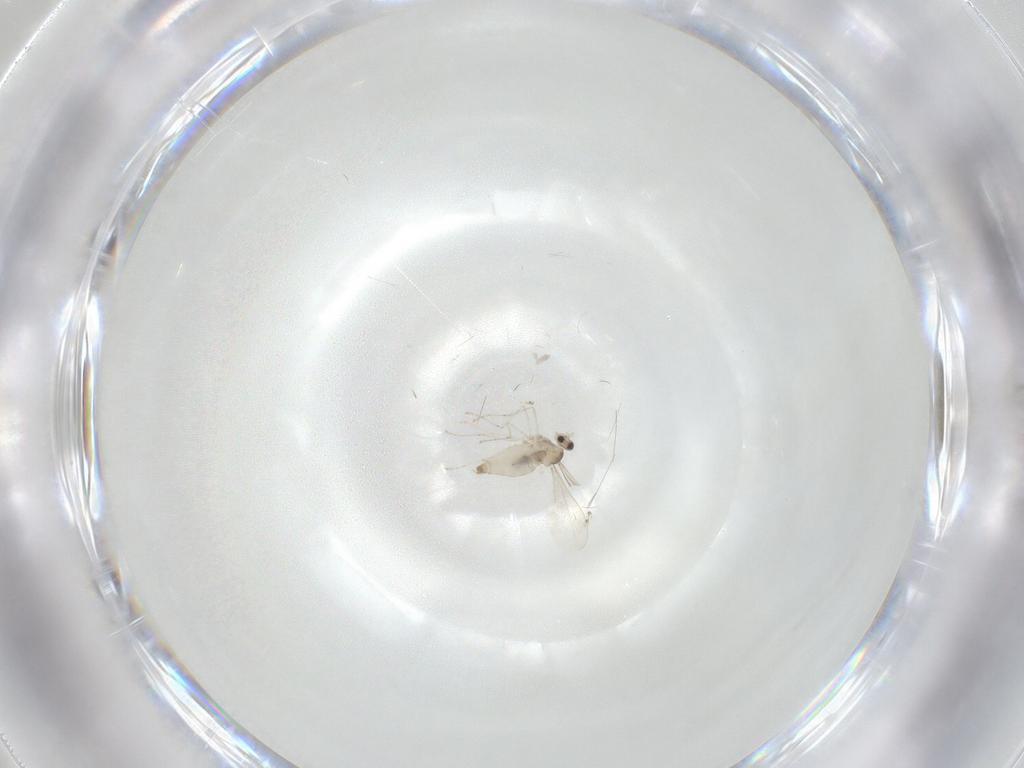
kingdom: Animalia
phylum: Arthropoda
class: Insecta
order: Diptera
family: Cecidomyiidae
